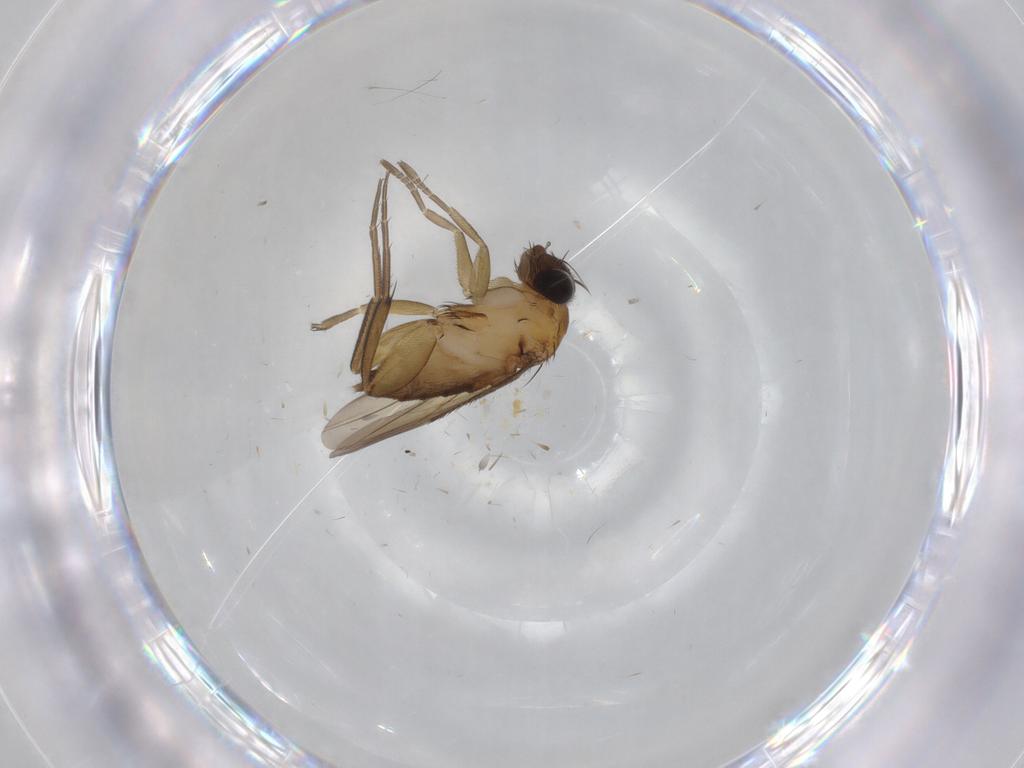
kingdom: Animalia
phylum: Arthropoda
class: Insecta
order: Diptera
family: Phoridae
